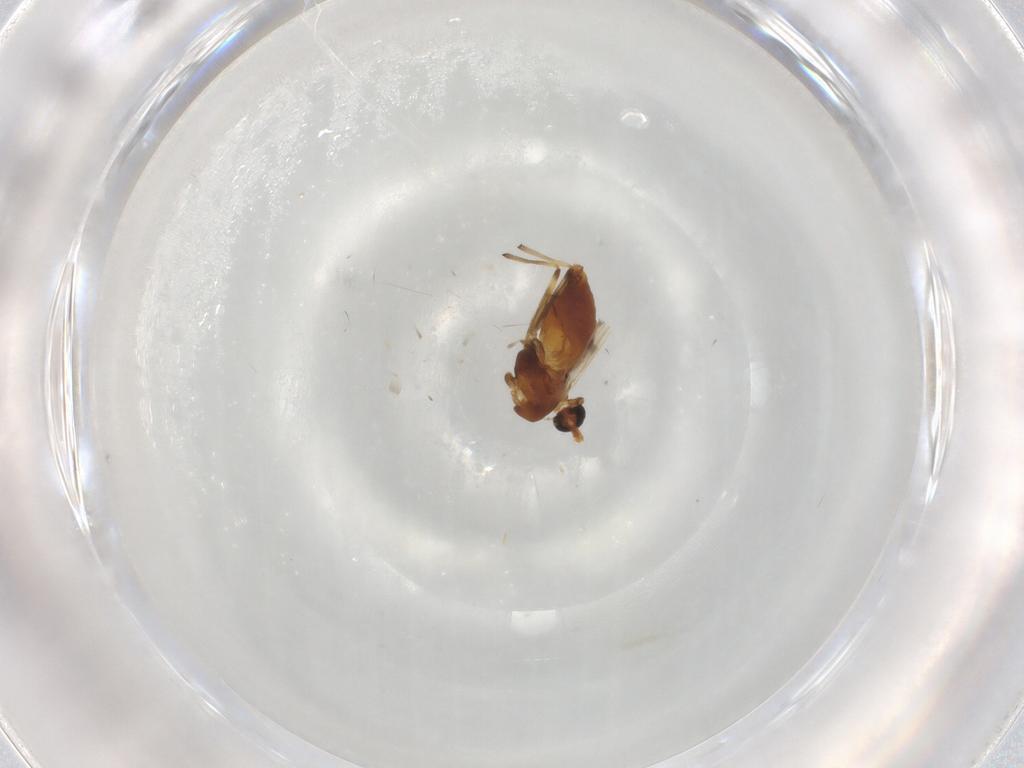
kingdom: Animalia
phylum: Arthropoda
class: Insecta
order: Diptera
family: Chironomidae
